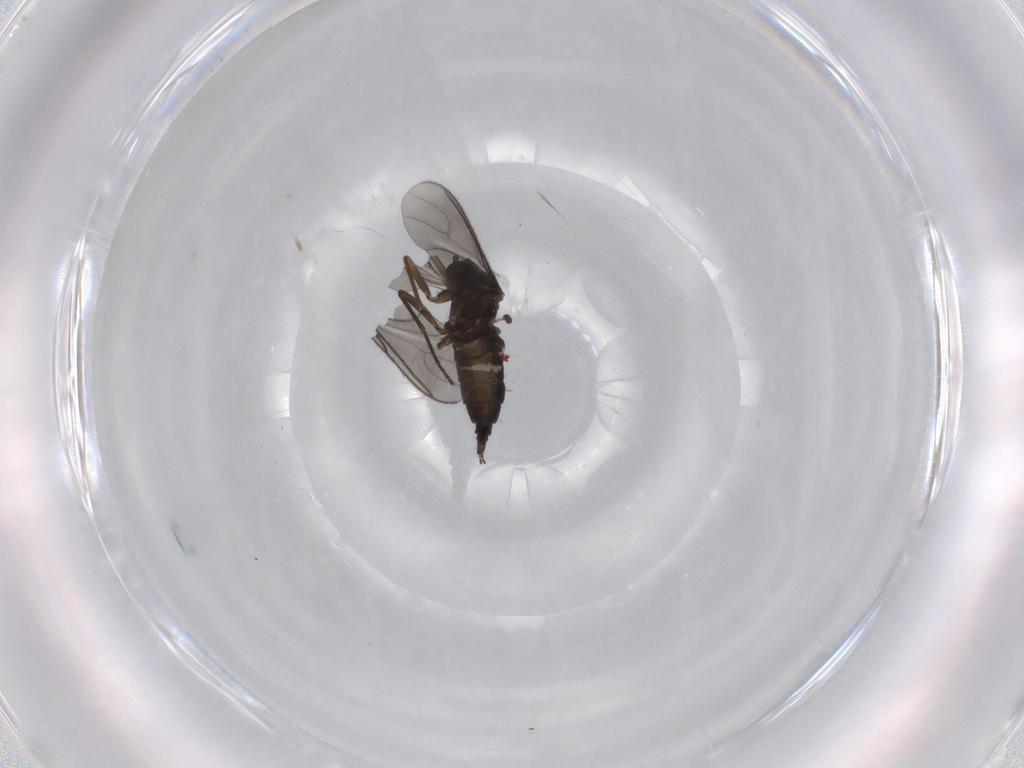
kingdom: Animalia
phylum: Arthropoda
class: Insecta
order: Diptera
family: Sciaridae
